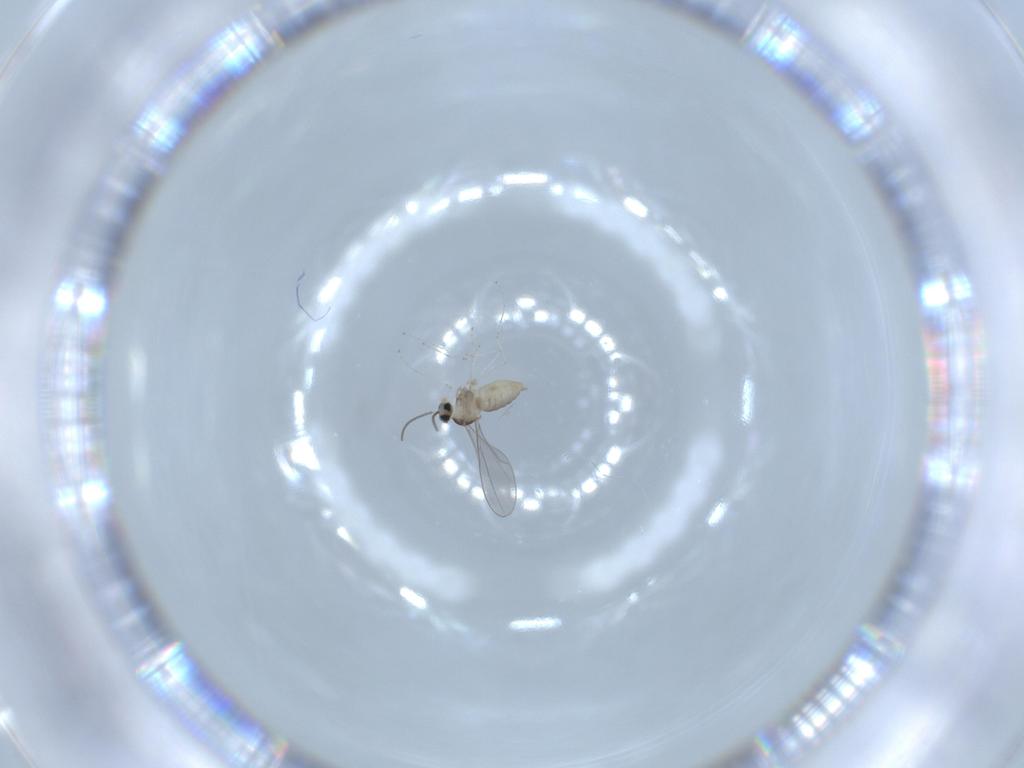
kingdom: Animalia
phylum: Arthropoda
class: Insecta
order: Diptera
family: Cecidomyiidae
